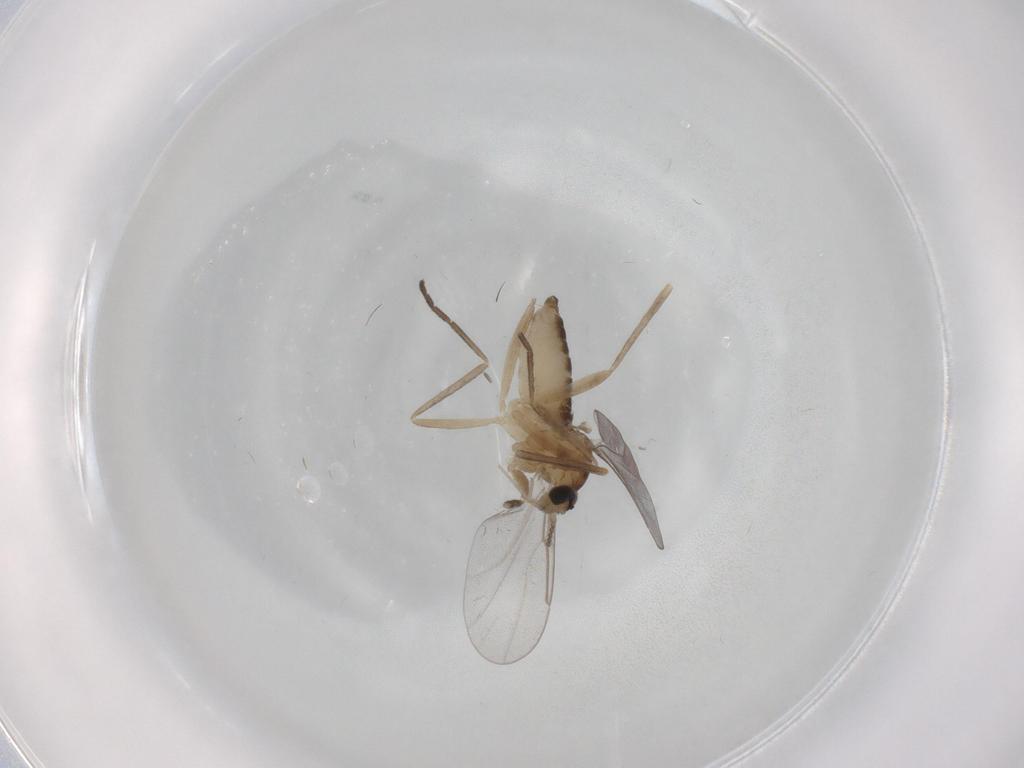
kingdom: Animalia
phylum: Arthropoda
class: Insecta
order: Diptera
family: Cecidomyiidae
